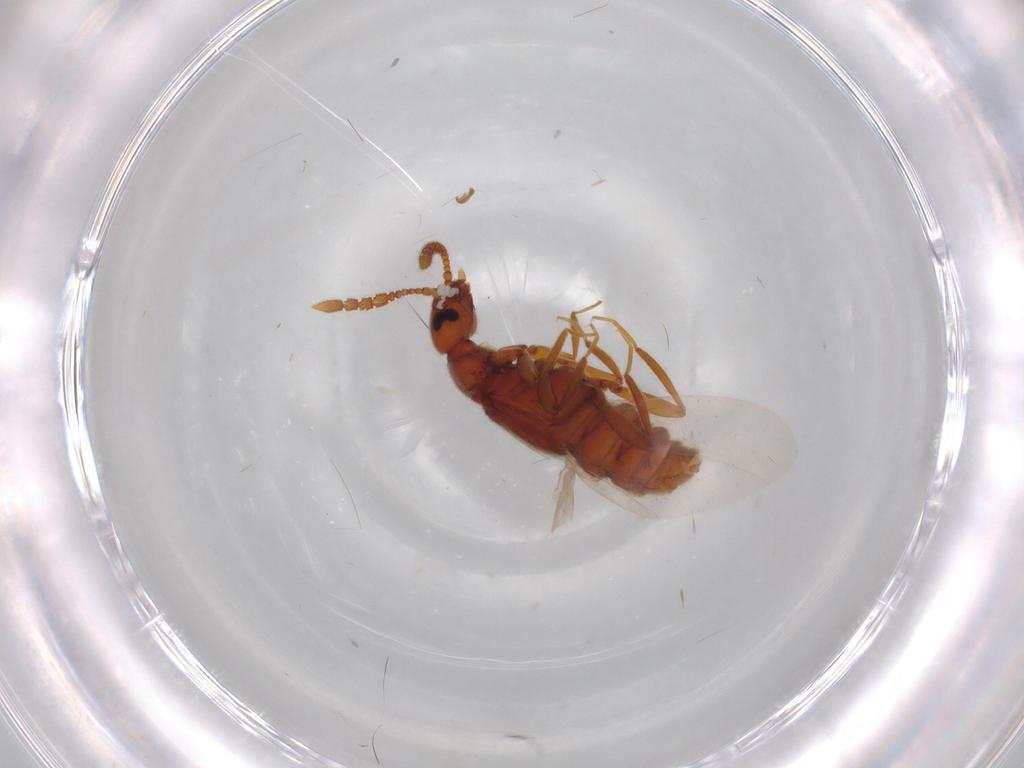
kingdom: Animalia
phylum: Arthropoda
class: Insecta
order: Coleoptera
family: Staphylinidae
